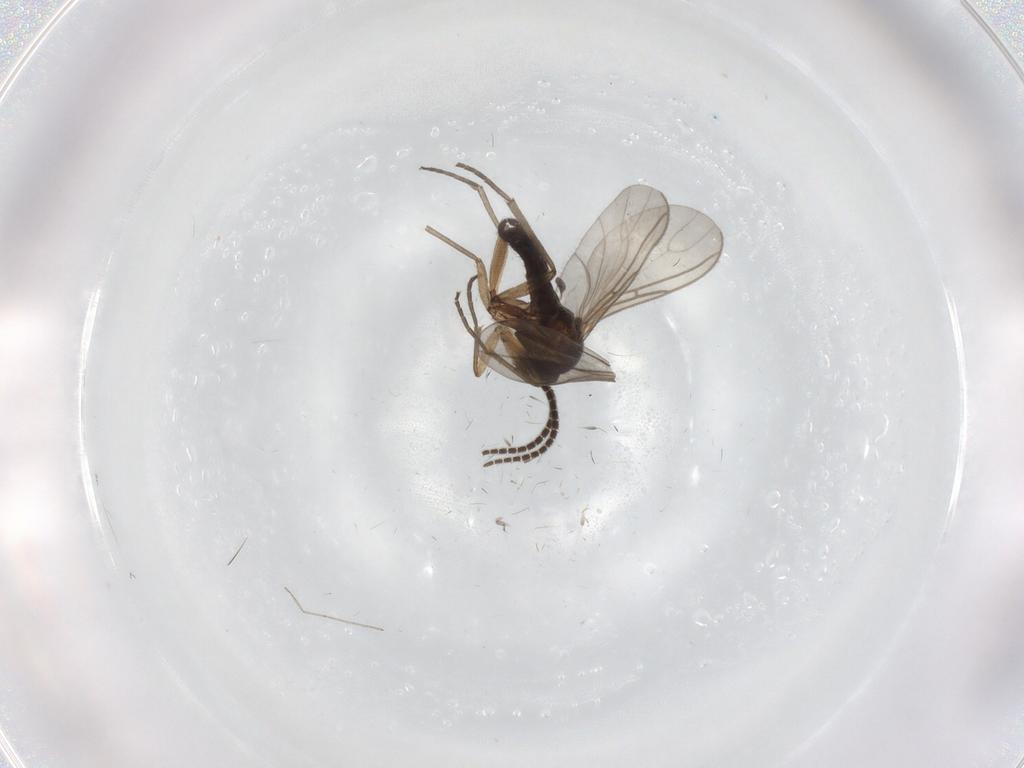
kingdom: Animalia
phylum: Arthropoda
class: Insecta
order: Diptera
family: Sciaridae
